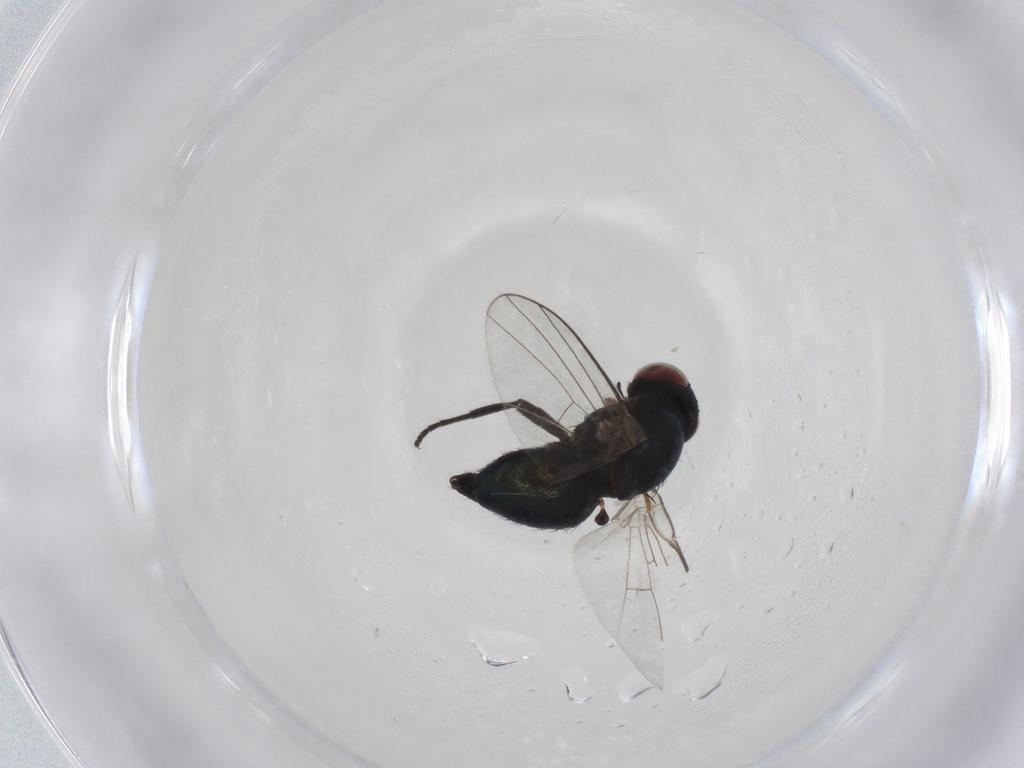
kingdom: Animalia
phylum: Arthropoda
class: Insecta
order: Diptera
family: Agromyzidae
